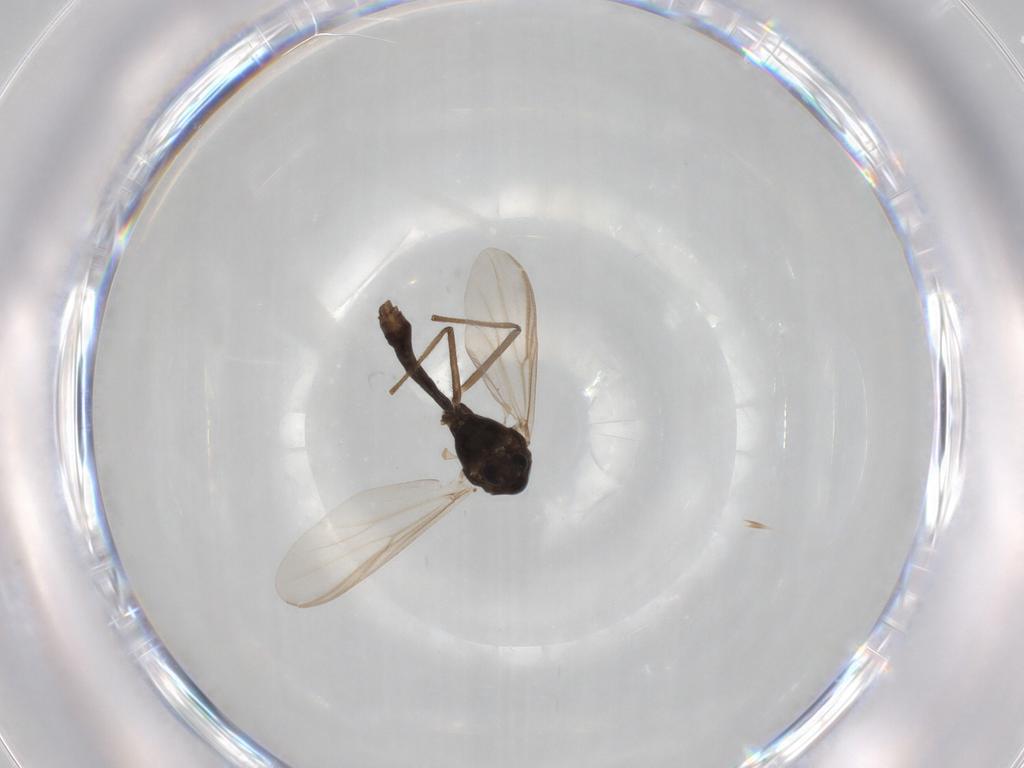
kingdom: Animalia
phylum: Arthropoda
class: Insecta
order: Diptera
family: Chironomidae
